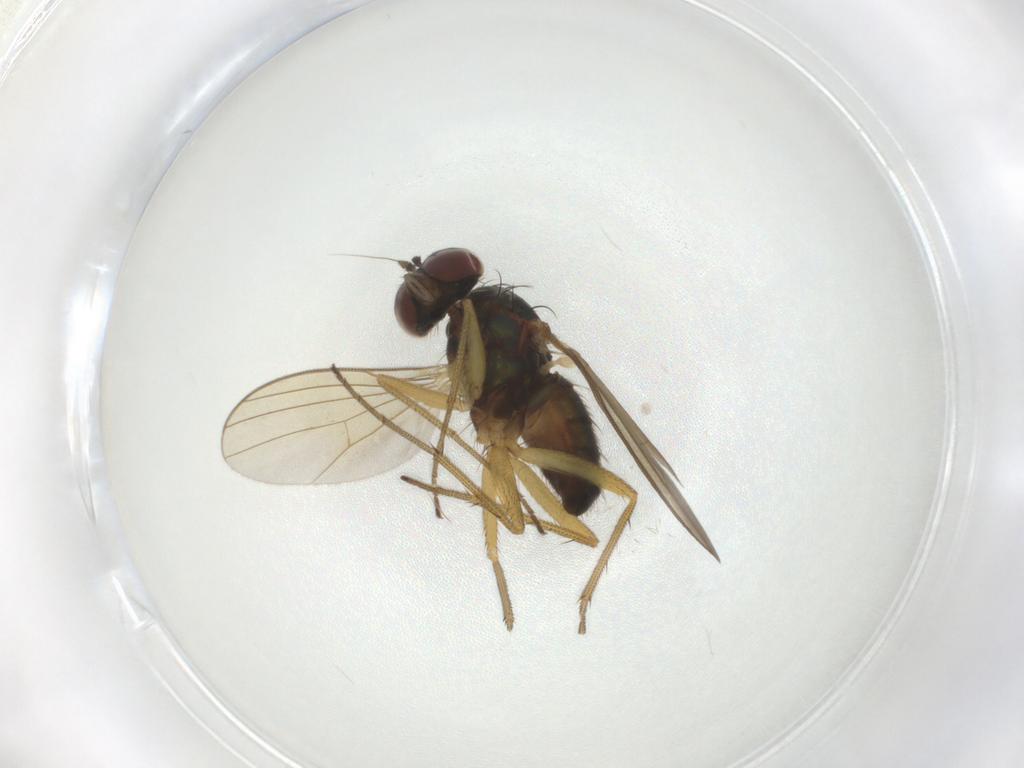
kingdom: Animalia
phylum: Arthropoda
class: Insecta
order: Diptera
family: Dolichopodidae
